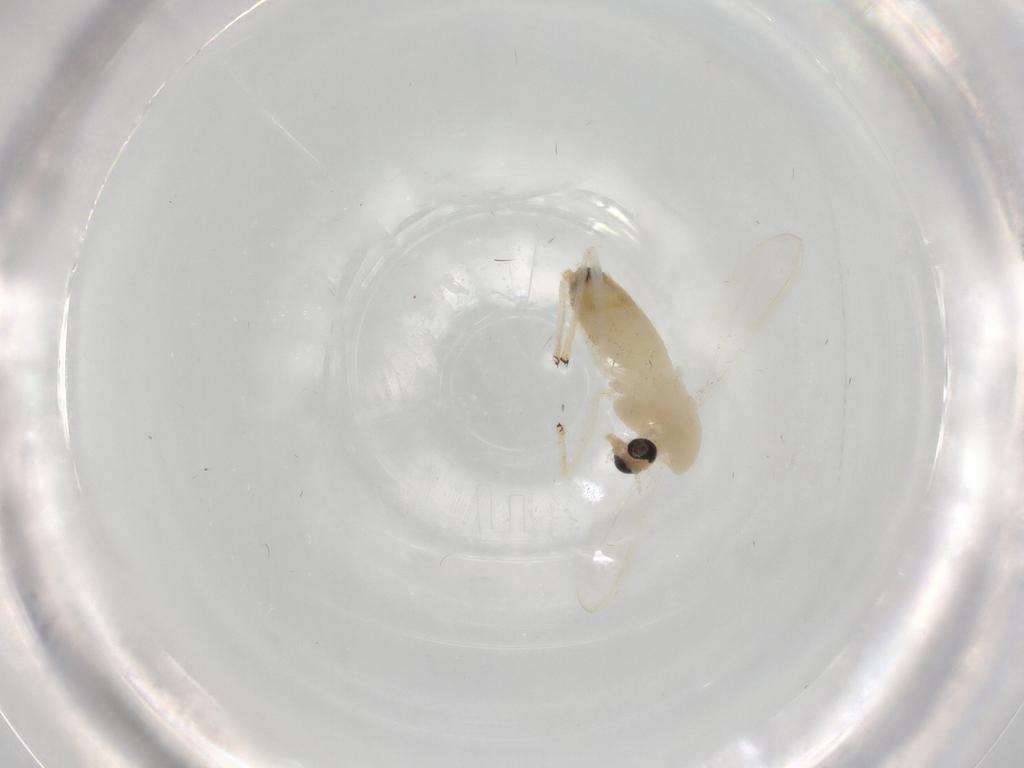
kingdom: Animalia
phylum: Arthropoda
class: Insecta
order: Diptera
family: Chironomidae
